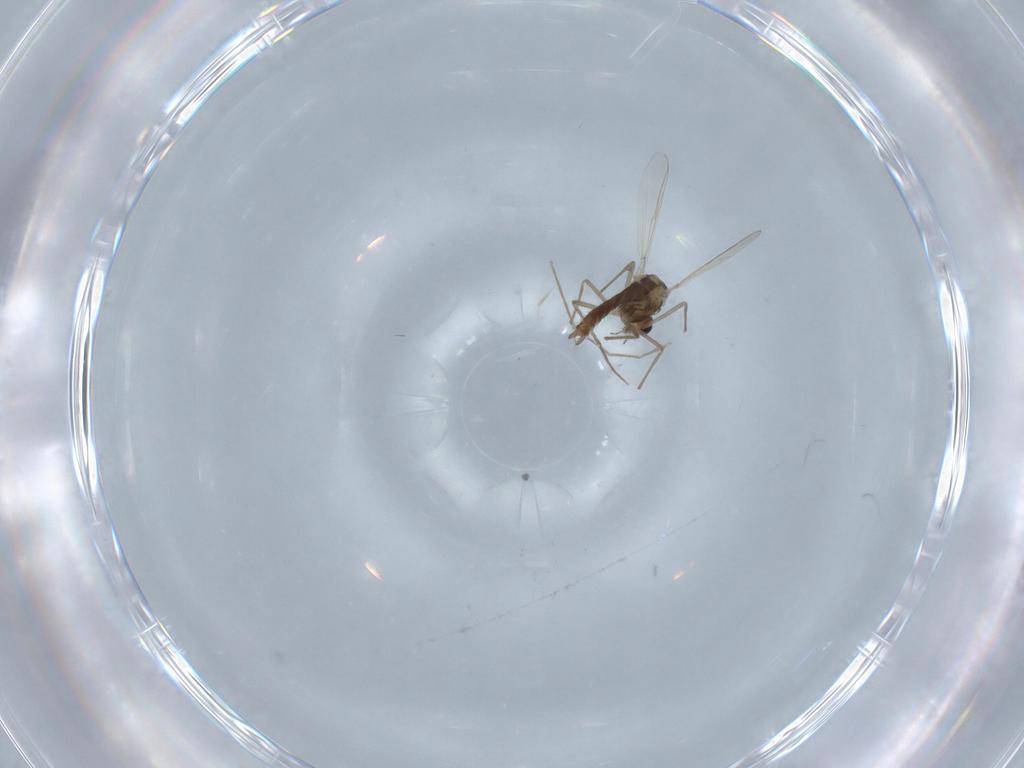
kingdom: Animalia
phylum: Arthropoda
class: Insecta
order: Diptera
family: Chironomidae
